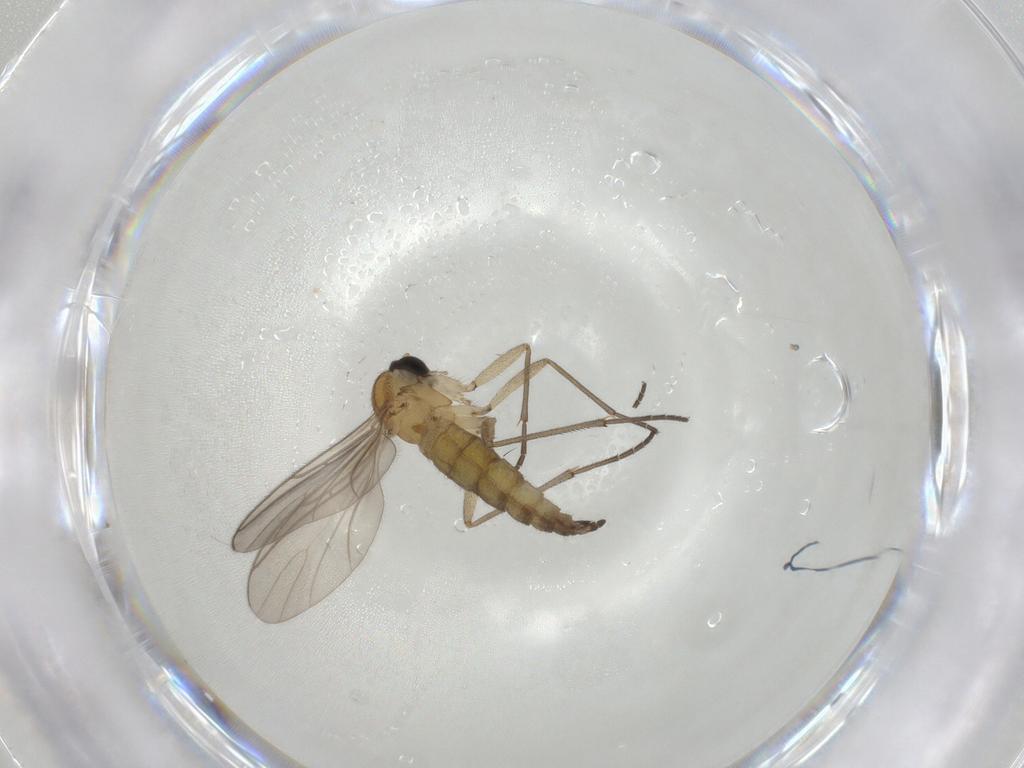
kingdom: Animalia
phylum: Arthropoda
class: Insecta
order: Diptera
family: Sciaridae
